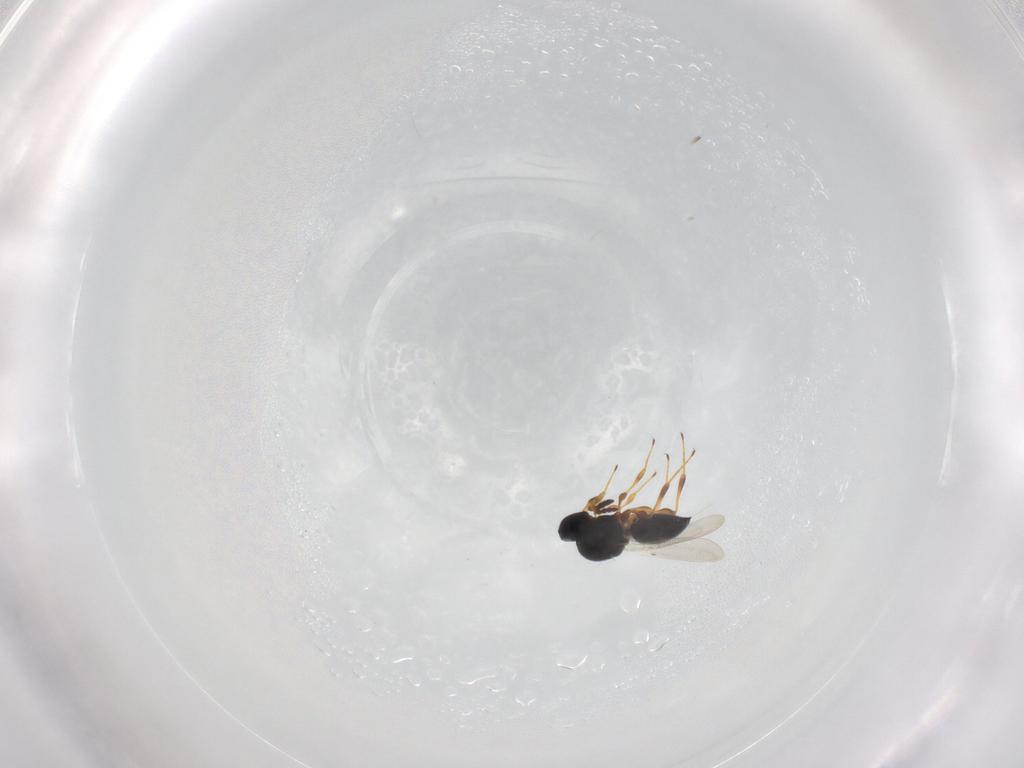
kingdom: Animalia
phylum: Arthropoda
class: Insecta
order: Hymenoptera
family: Platygastridae
